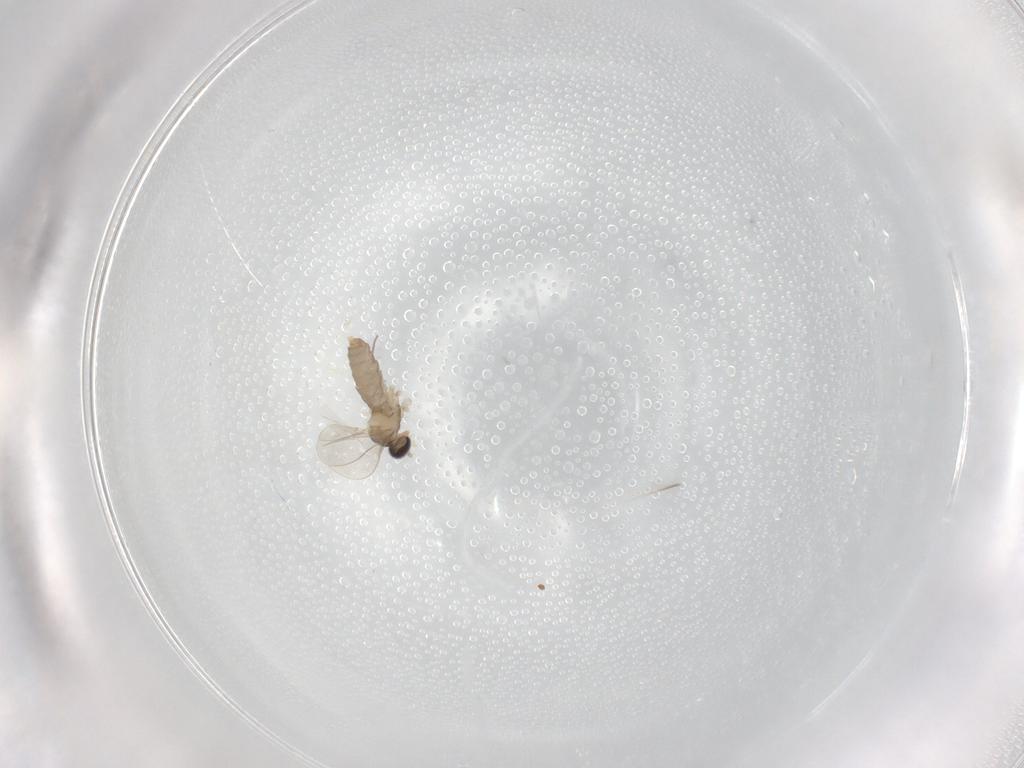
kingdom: Animalia
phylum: Arthropoda
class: Insecta
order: Diptera
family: Cecidomyiidae
